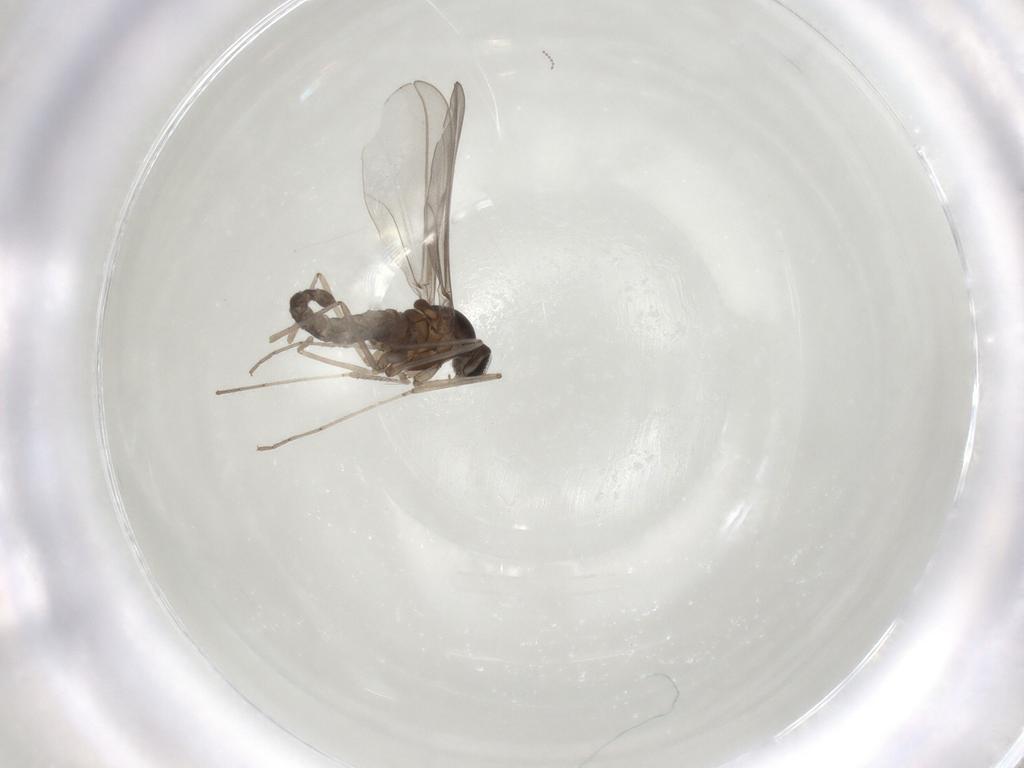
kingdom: Animalia
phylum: Arthropoda
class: Insecta
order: Diptera
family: Cecidomyiidae
